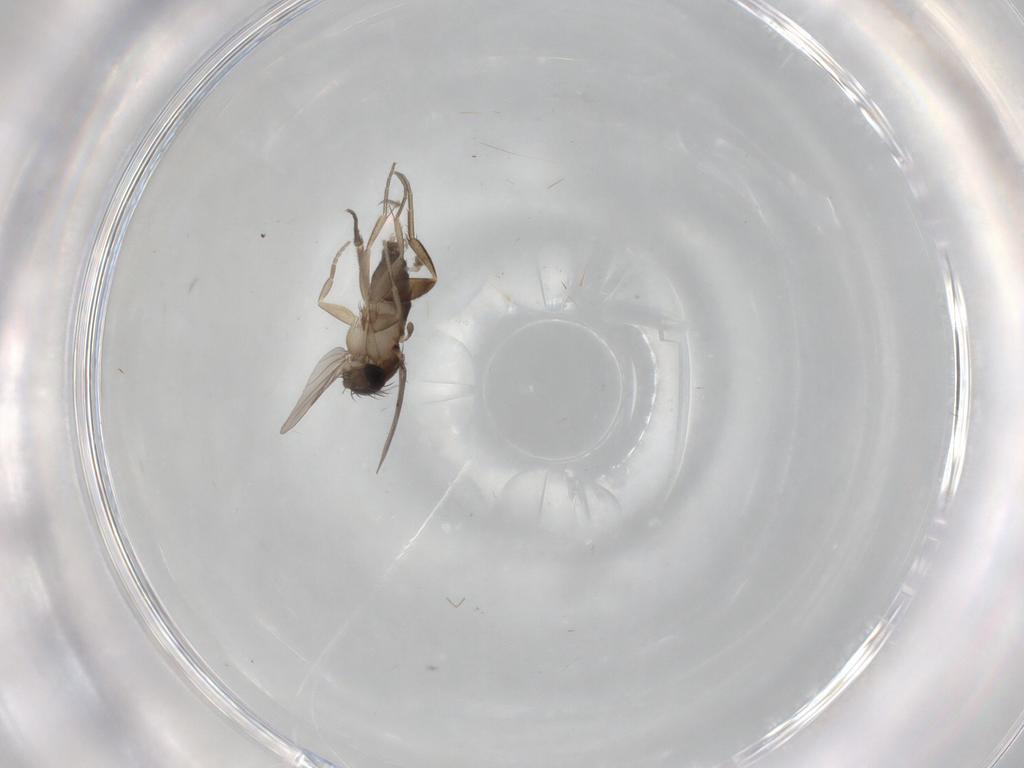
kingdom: Animalia
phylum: Arthropoda
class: Insecta
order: Diptera
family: Phoridae
